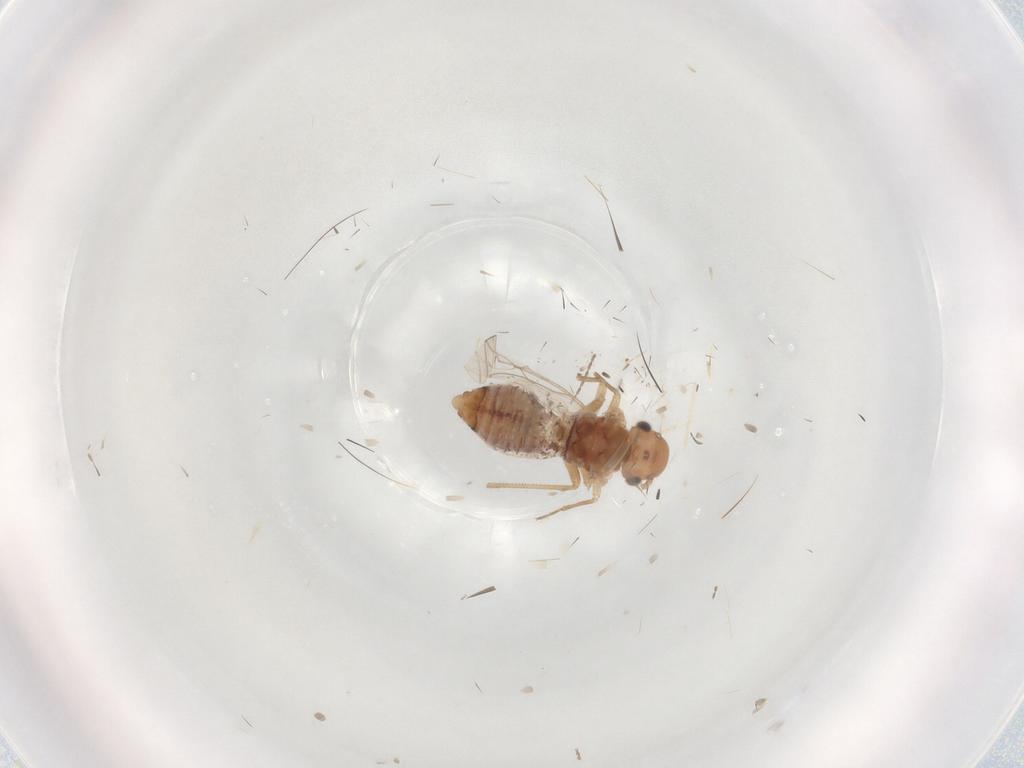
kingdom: Animalia
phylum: Arthropoda
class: Insecta
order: Psocodea
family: Lachesillidae
